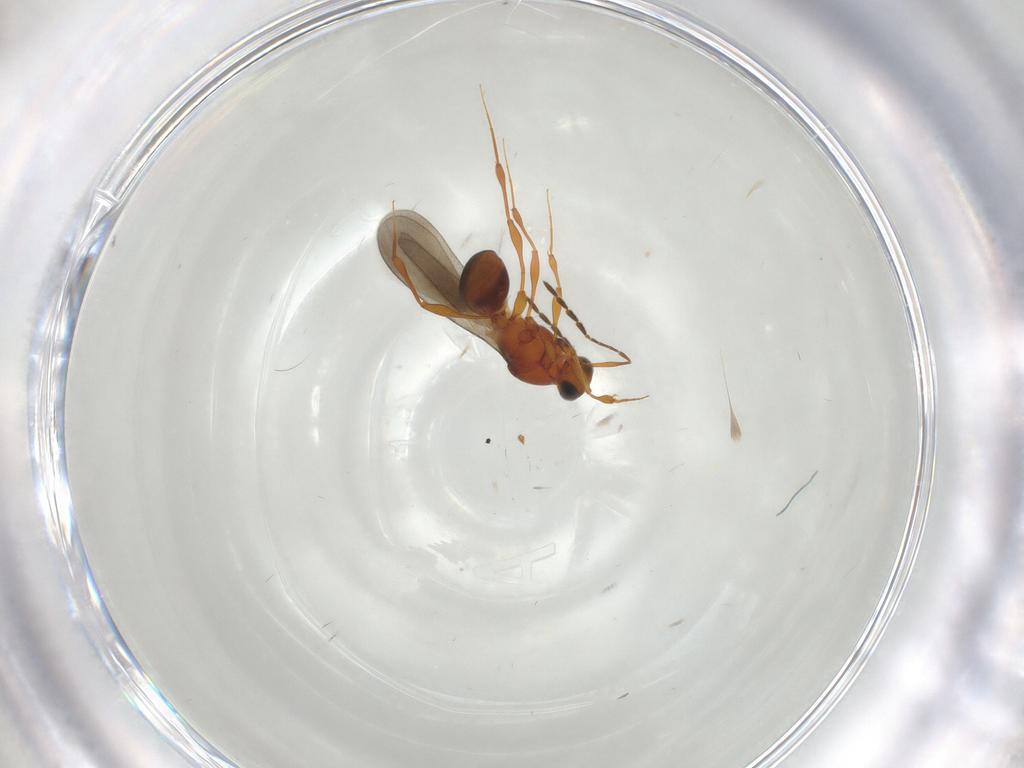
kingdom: Animalia
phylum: Arthropoda
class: Insecta
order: Hymenoptera
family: Platygastridae
